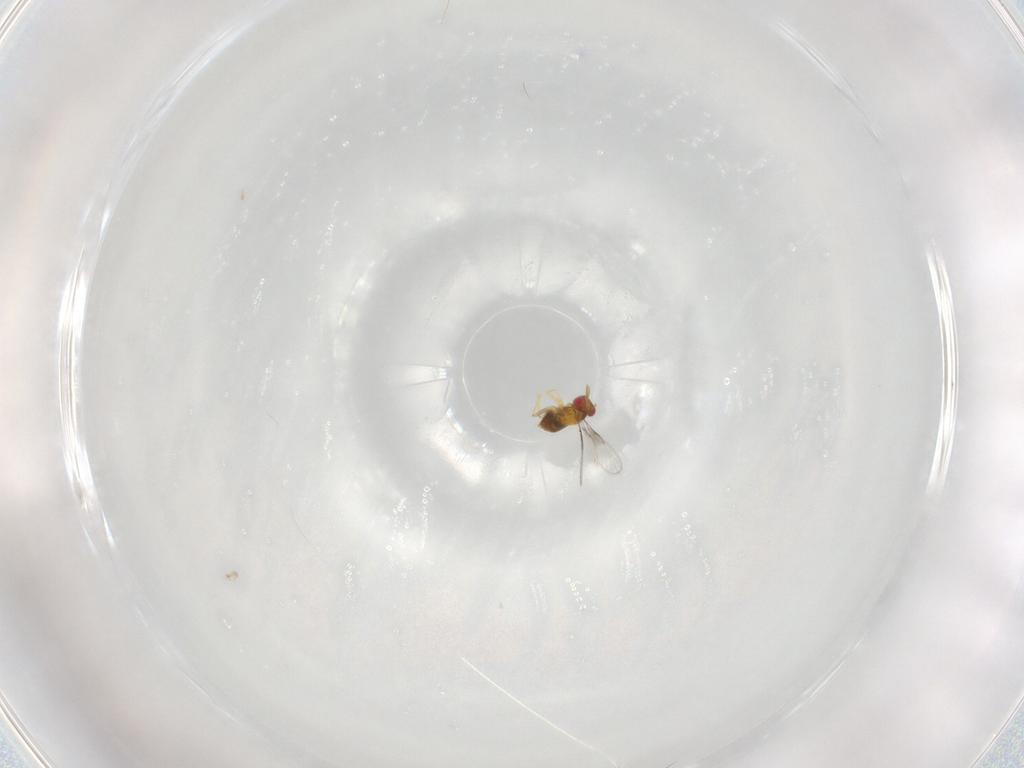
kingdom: Animalia
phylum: Arthropoda
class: Insecta
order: Hymenoptera
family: Trichogrammatidae
